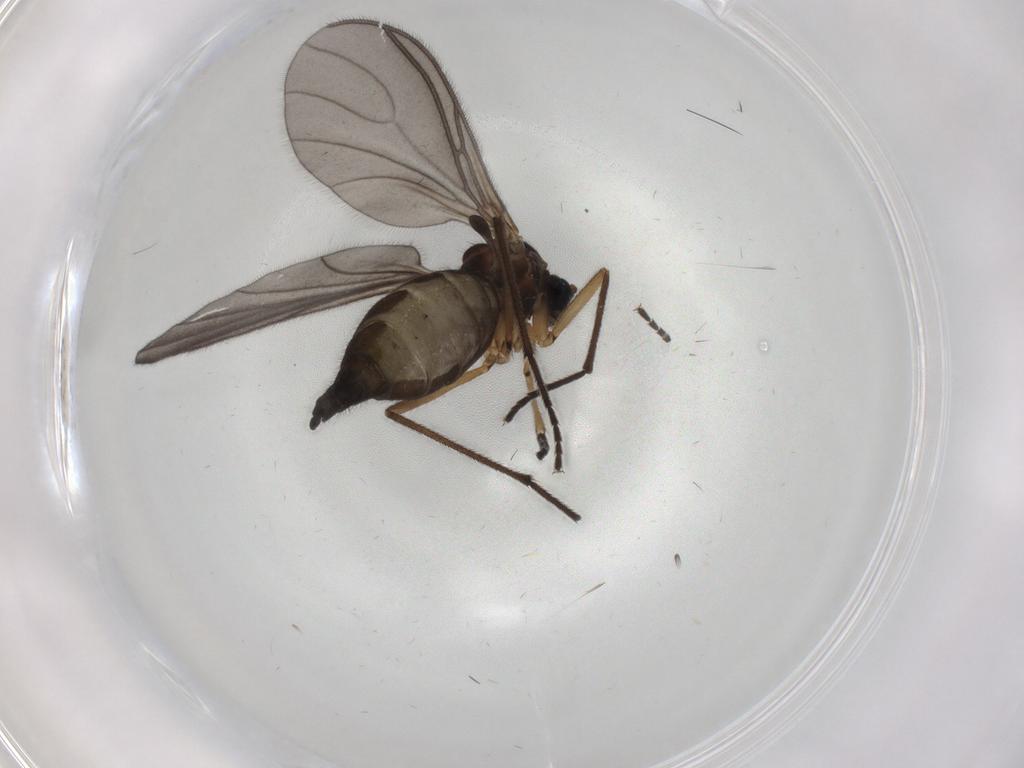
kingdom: Animalia
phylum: Arthropoda
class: Insecta
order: Diptera
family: Sciaridae
